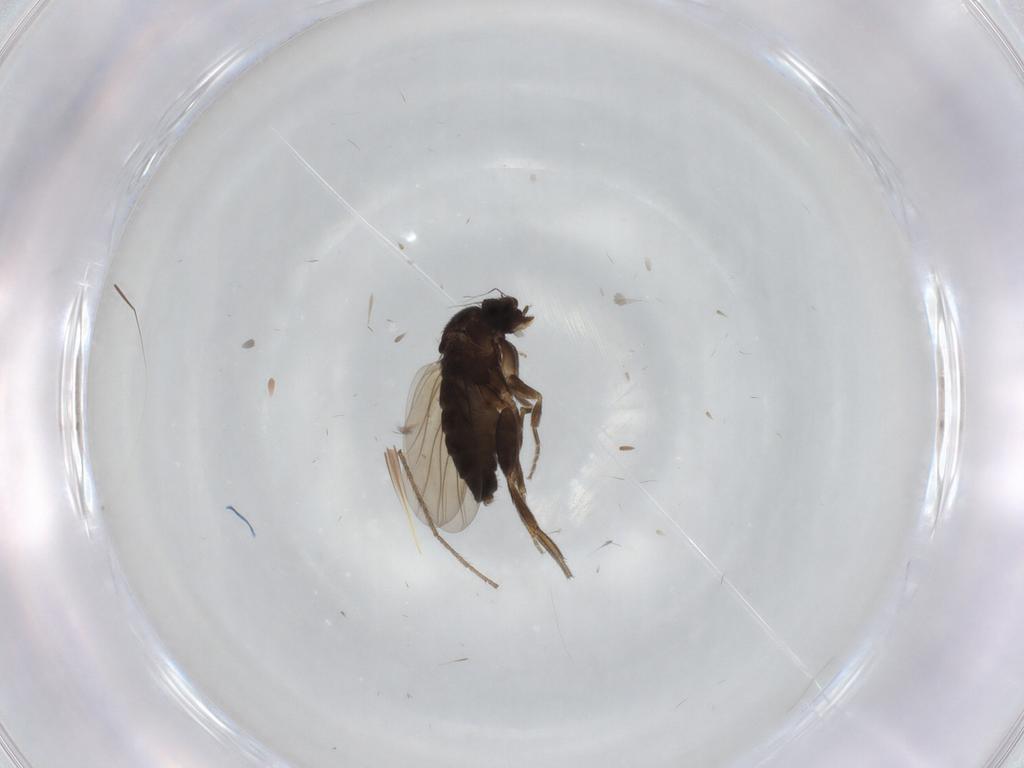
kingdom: Animalia
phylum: Arthropoda
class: Insecta
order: Diptera
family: Phoridae
